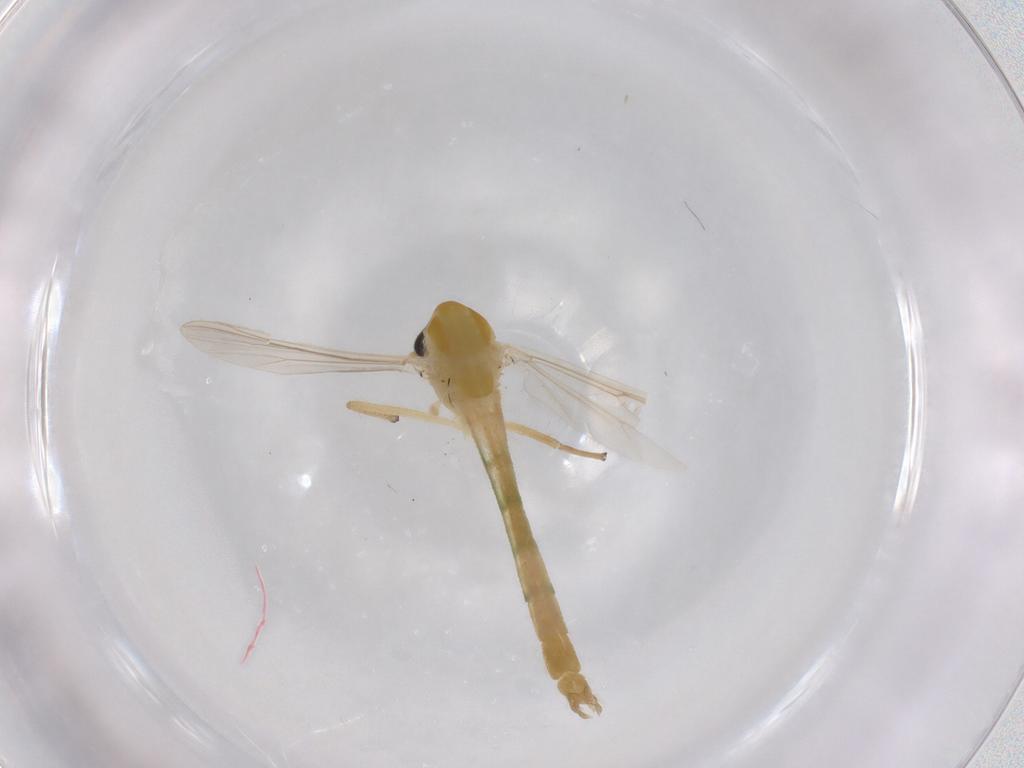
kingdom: Animalia
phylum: Arthropoda
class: Insecta
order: Diptera
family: Chironomidae
